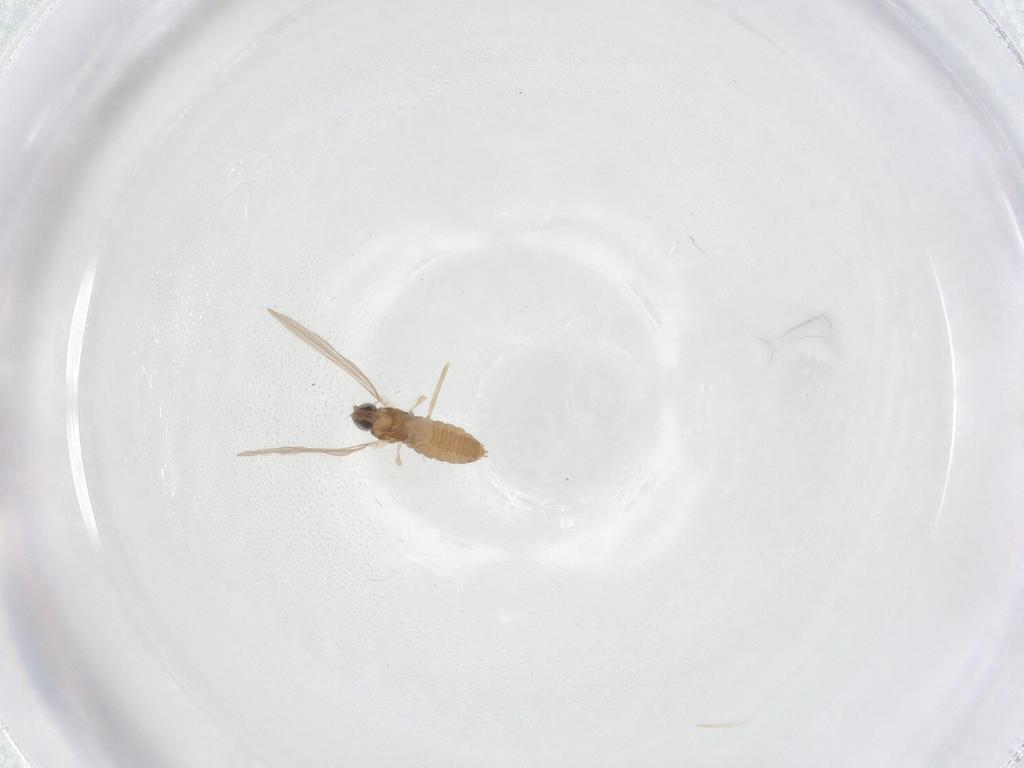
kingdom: Animalia
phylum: Arthropoda
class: Insecta
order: Diptera
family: Cecidomyiidae
